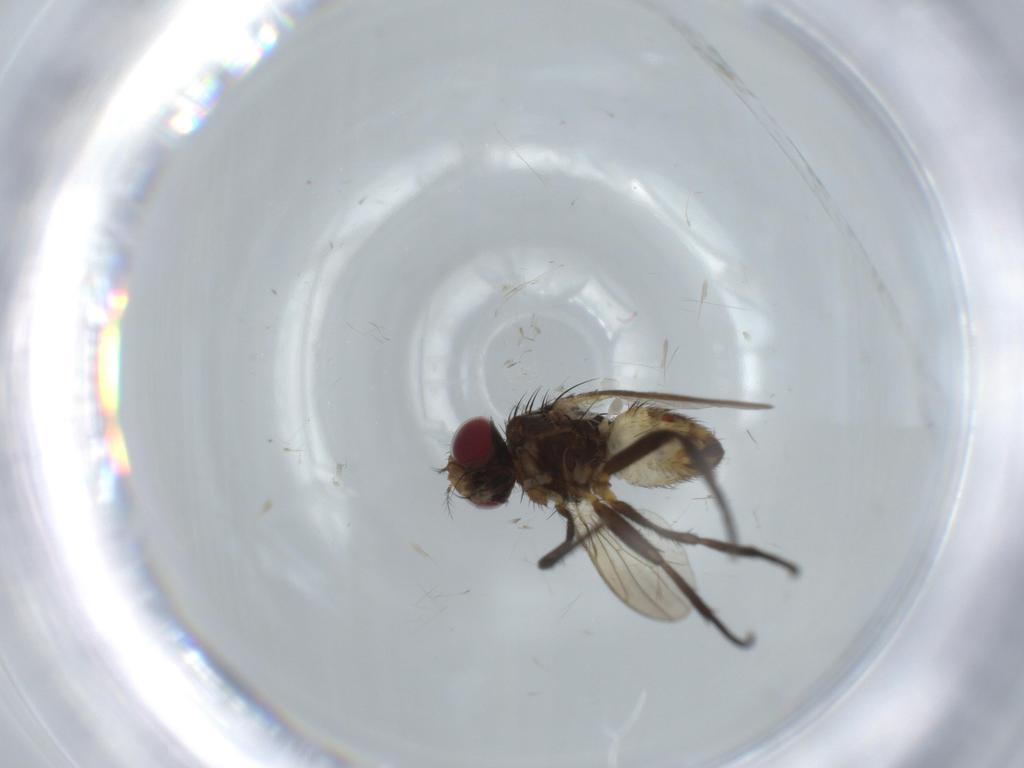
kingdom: Animalia
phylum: Arthropoda
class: Insecta
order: Diptera
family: Anthomyiidae
